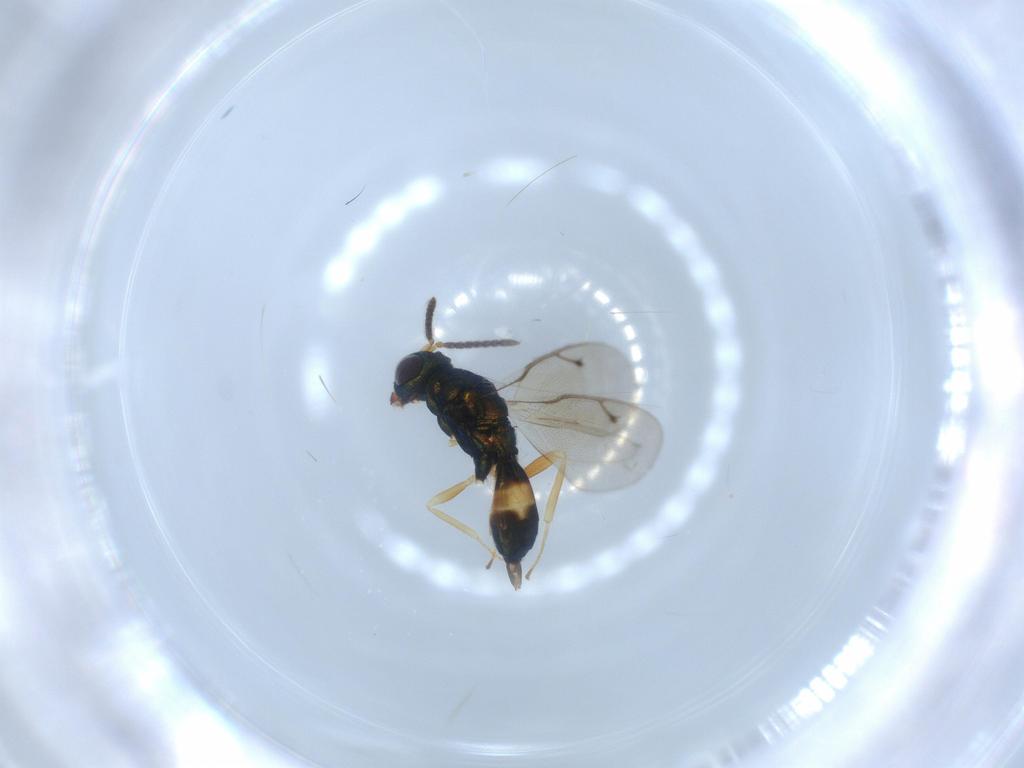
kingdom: Animalia
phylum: Arthropoda
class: Insecta
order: Hymenoptera
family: Pteromalidae
